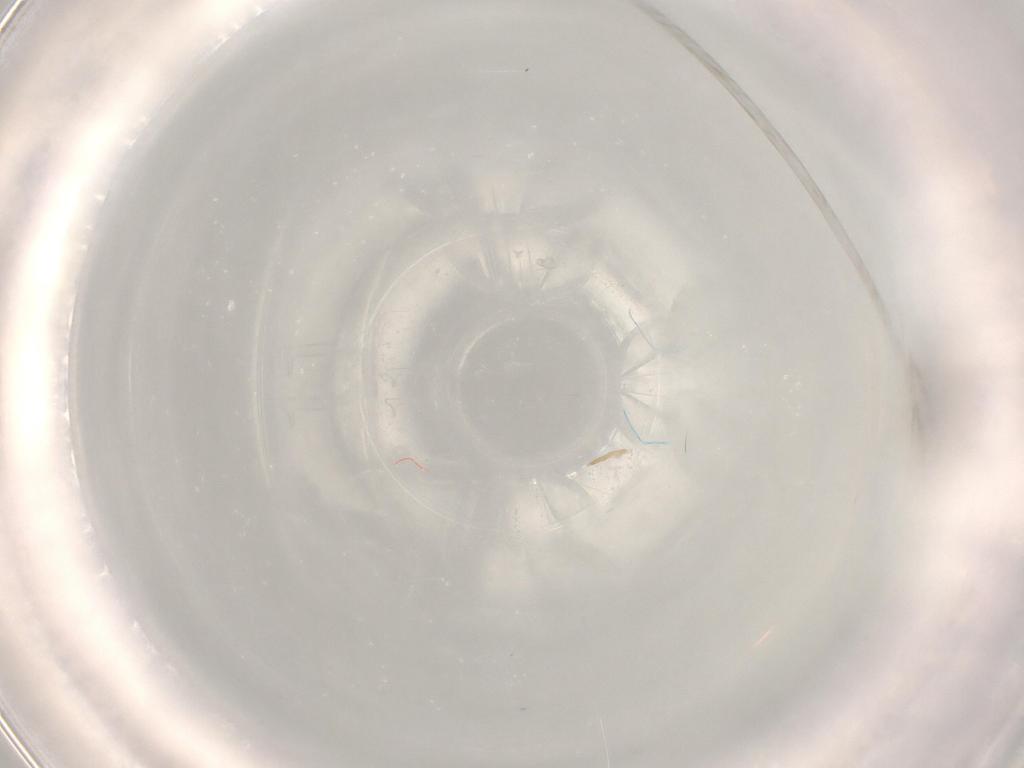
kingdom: Animalia
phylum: Arthropoda
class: Insecta
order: Diptera
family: Phoridae
